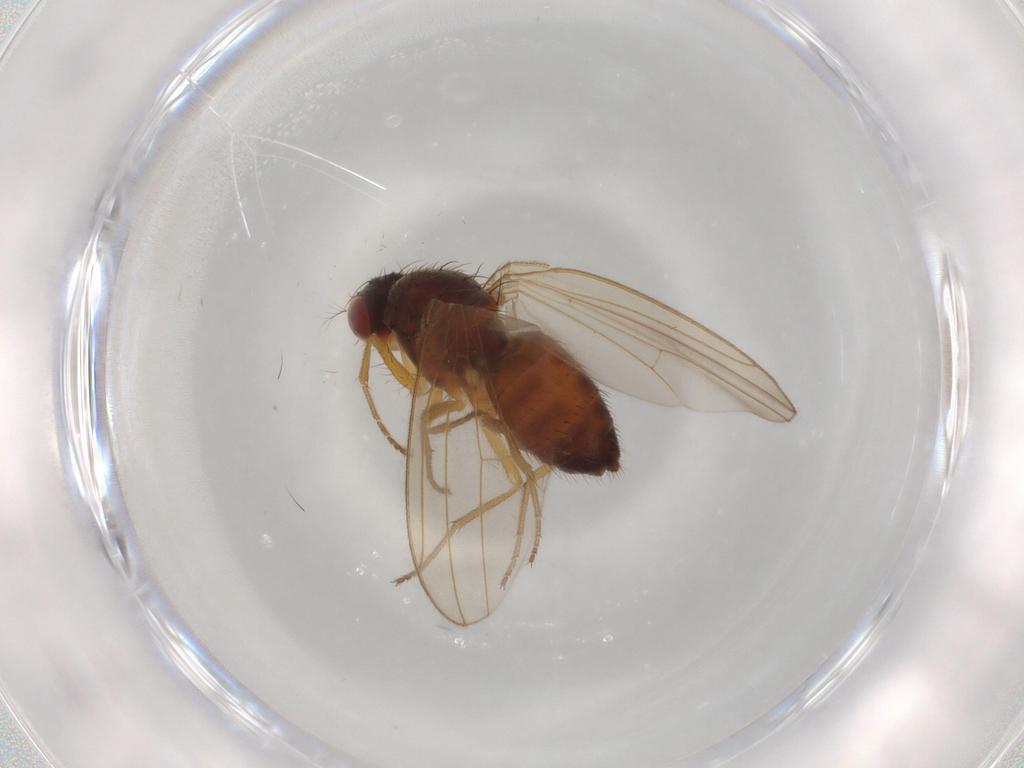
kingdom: Animalia
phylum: Arthropoda
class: Insecta
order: Diptera
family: Drosophilidae
